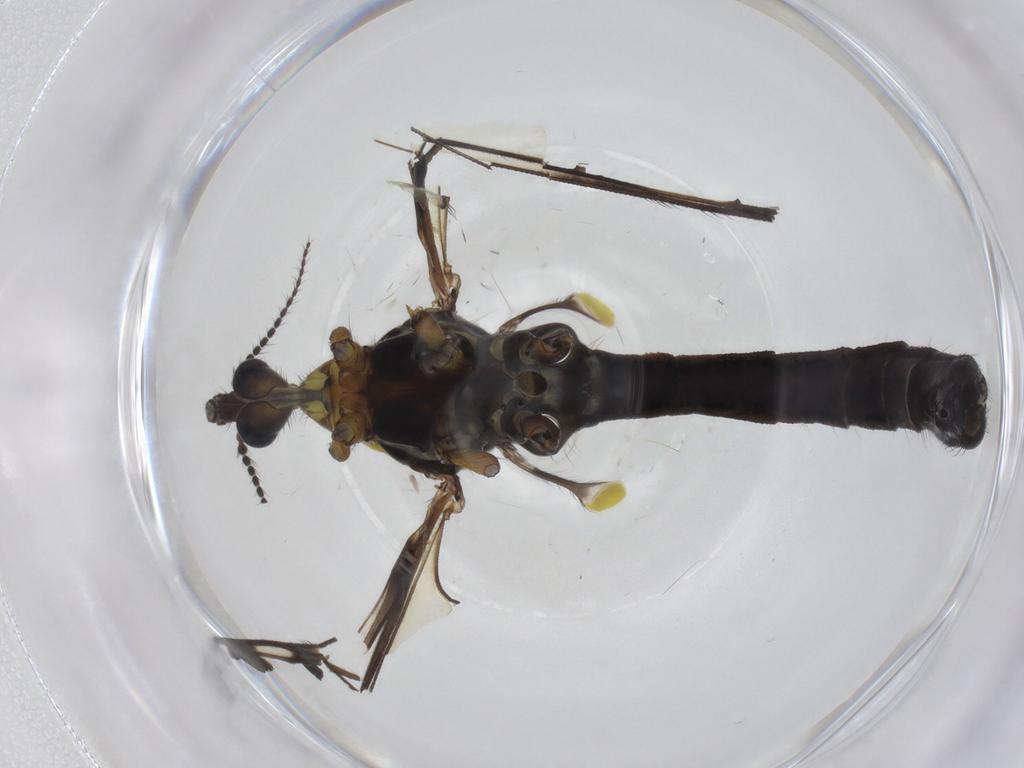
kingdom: Animalia
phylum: Arthropoda
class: Insecta
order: Diptera
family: Limoniidae
